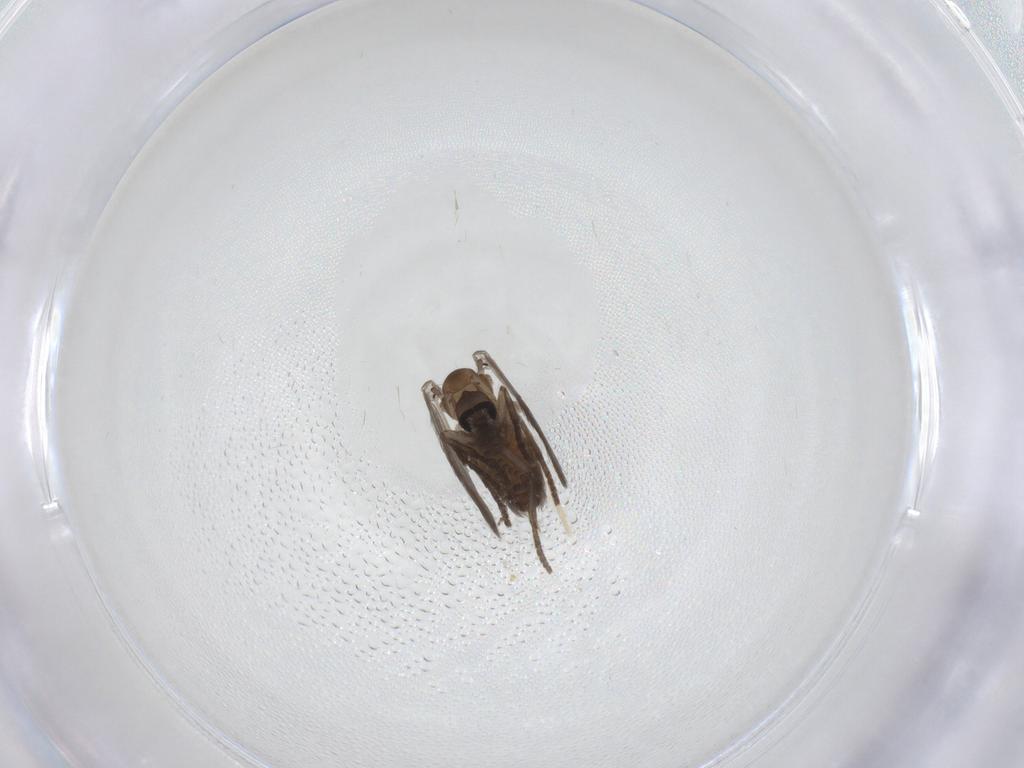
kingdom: Animalia
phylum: Arthropoda
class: Insecta
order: Diptera
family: Psychodidae
